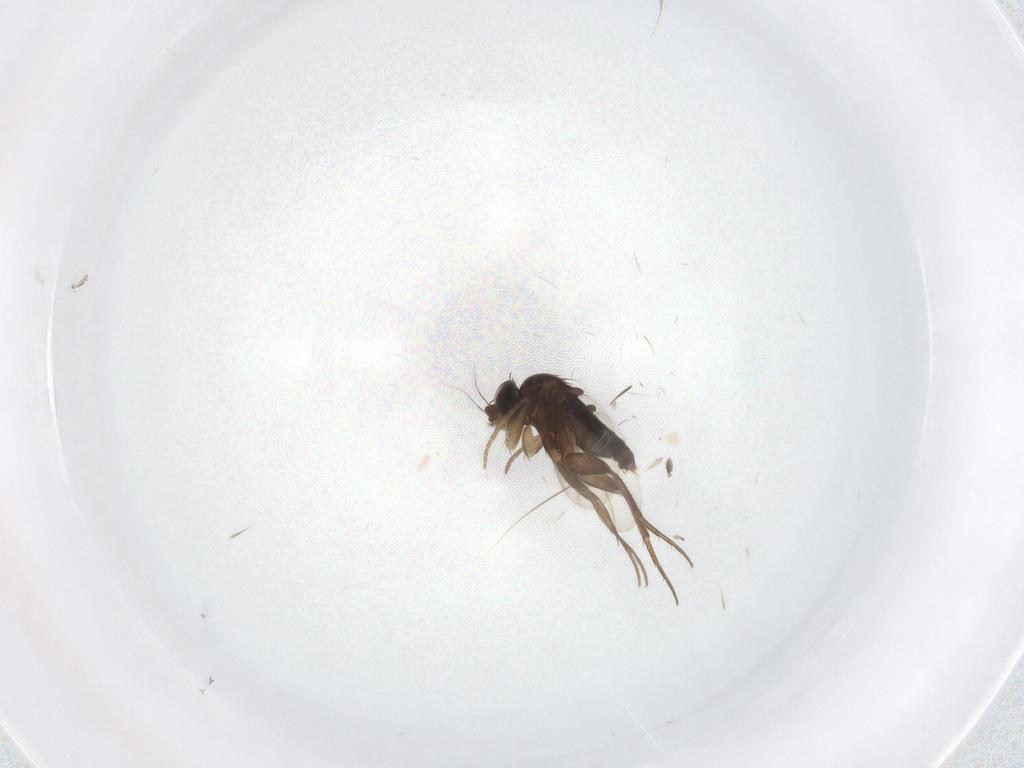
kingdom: Animalia
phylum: Arthropoda
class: Insecta
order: Diptera
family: Phoridae
